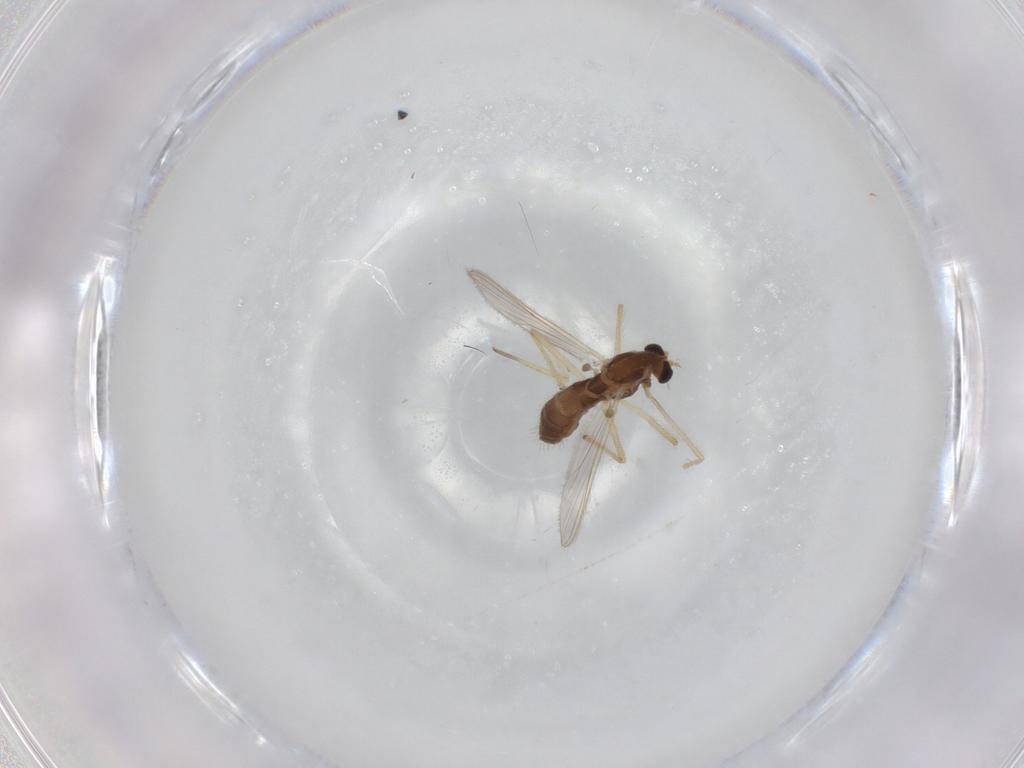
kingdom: Animalia
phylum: Arthropoda
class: Insecta
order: Diptera
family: Chironomidae
